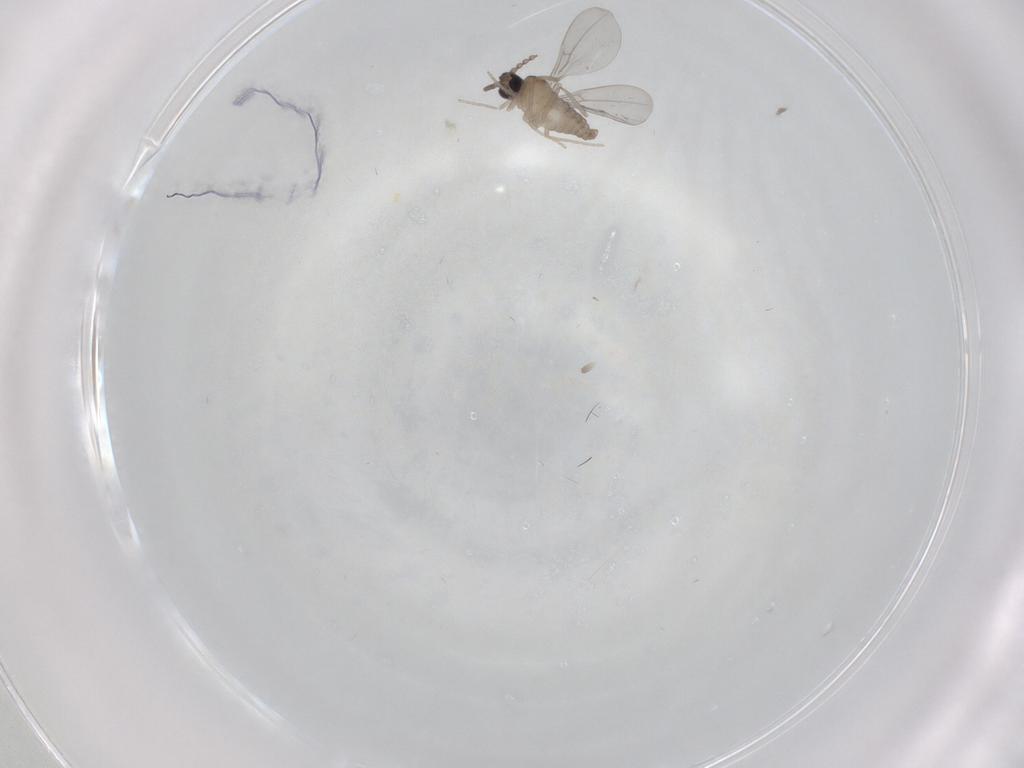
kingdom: Animalia
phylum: Arthropoda
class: Insecta
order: Diptera
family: Cecidomyiidae
